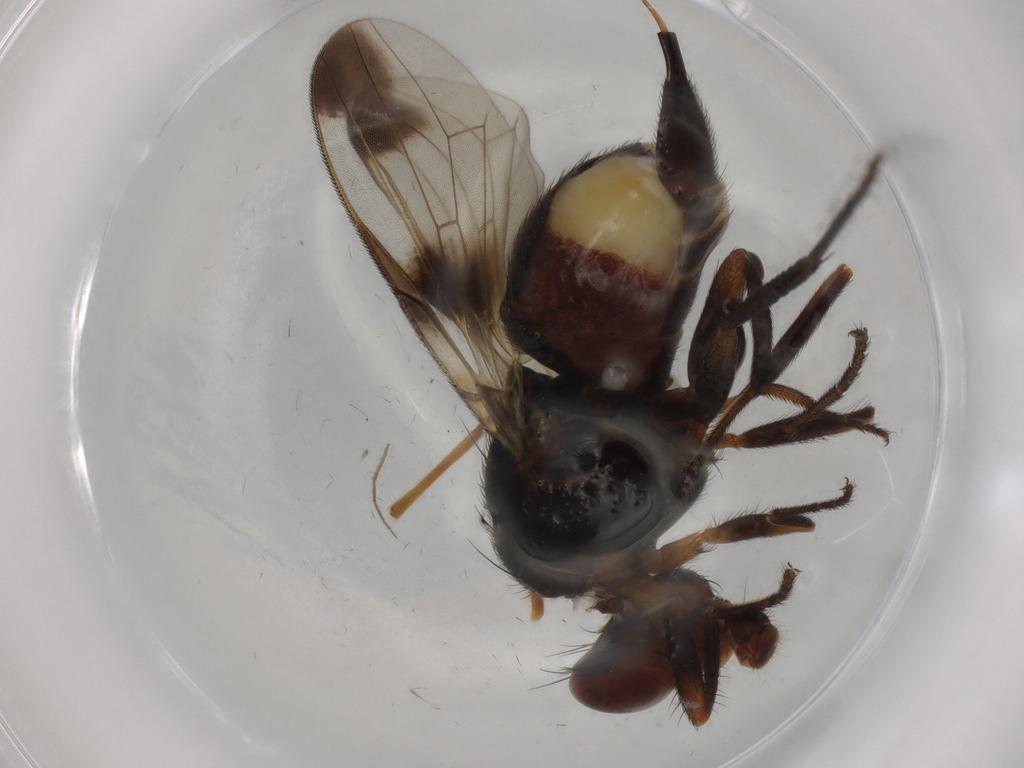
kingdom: Animalia
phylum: Arthropoda
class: Insecta
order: Diptera
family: Ulidiidae
